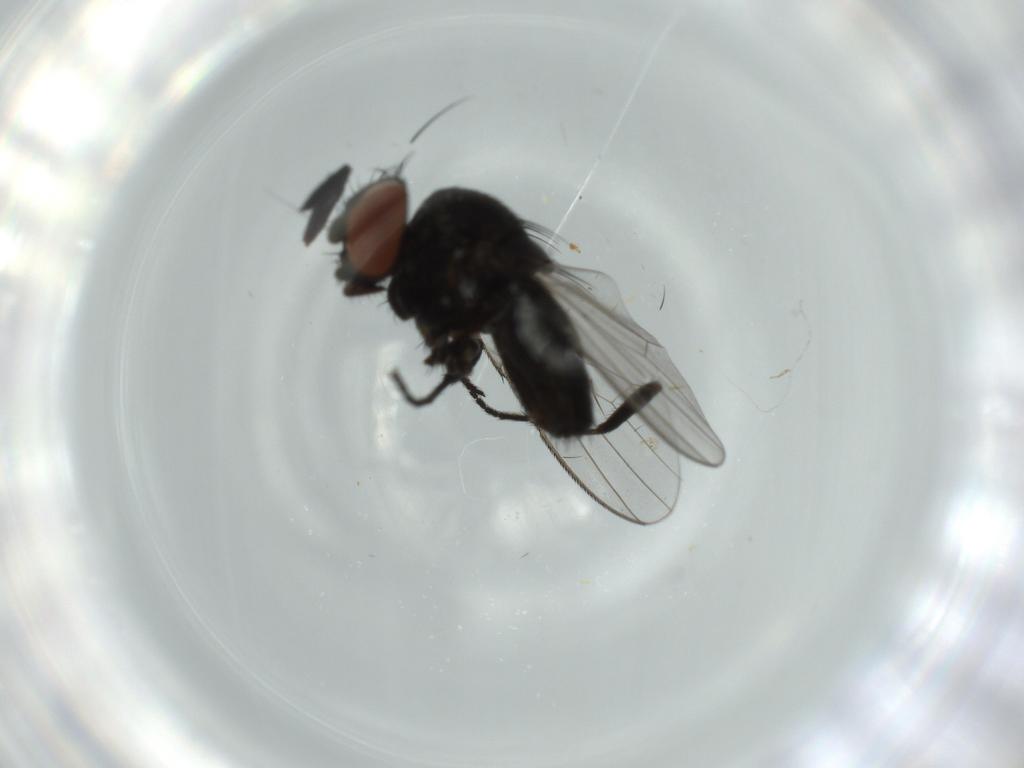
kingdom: Animalia
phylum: Arthropoda
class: Insecta
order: Diptera
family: Milichiidae
